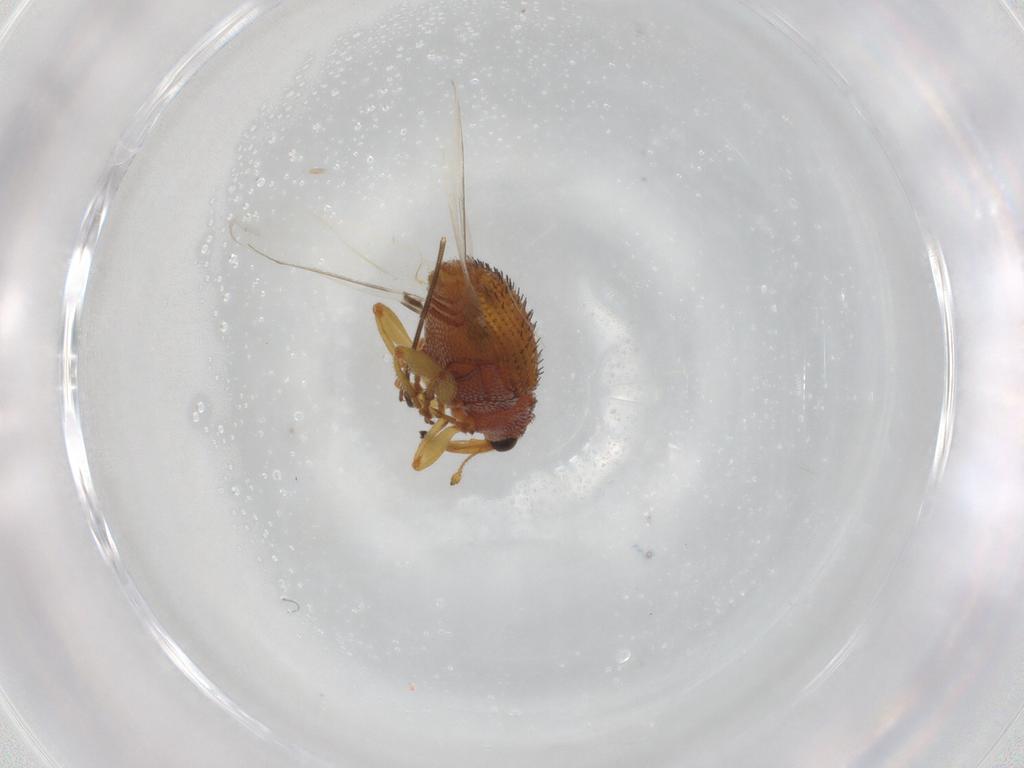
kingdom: Animalia
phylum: Arthropoda
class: Insecta
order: Coleoptera
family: Curculionidae
